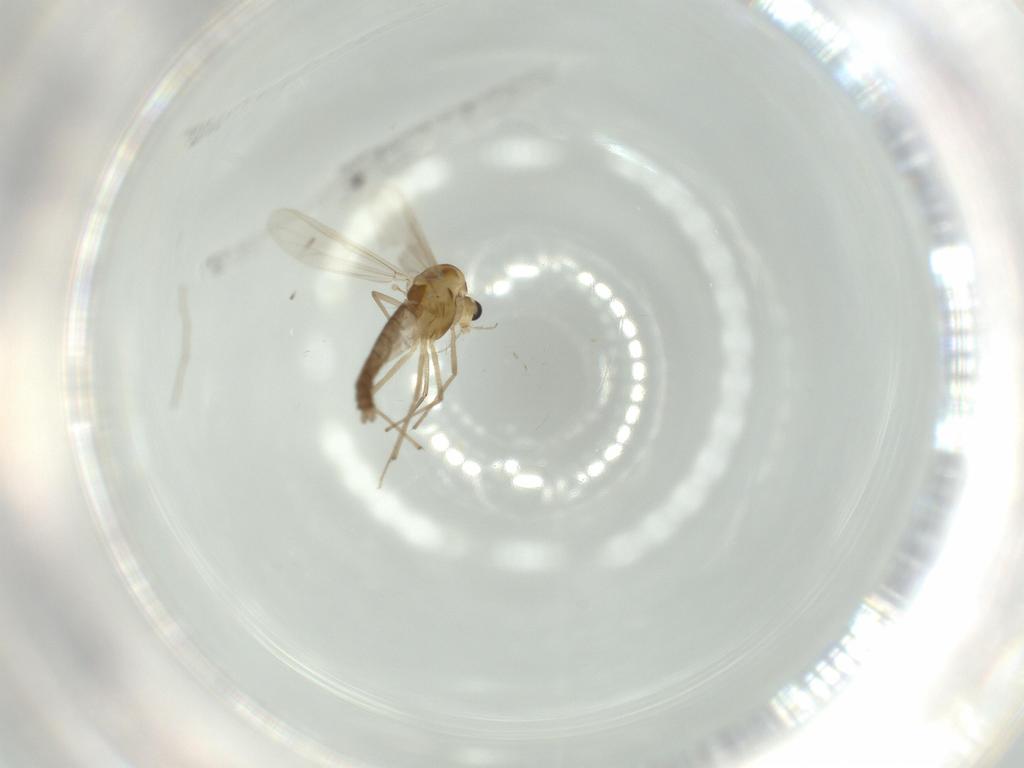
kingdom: Animalia
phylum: Arthropoda
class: Insecta
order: Diptera
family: Chironomidae
